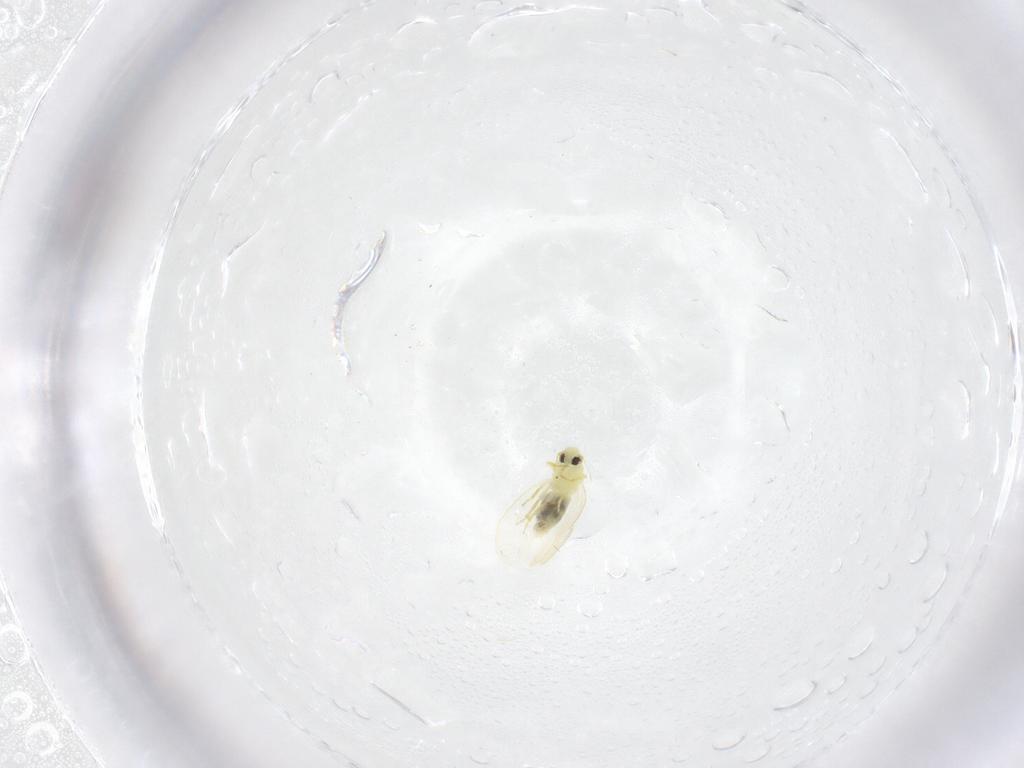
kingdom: Animalia
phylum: Arthropoda
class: Insecta
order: Hemiptera
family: Aleyrodidae
